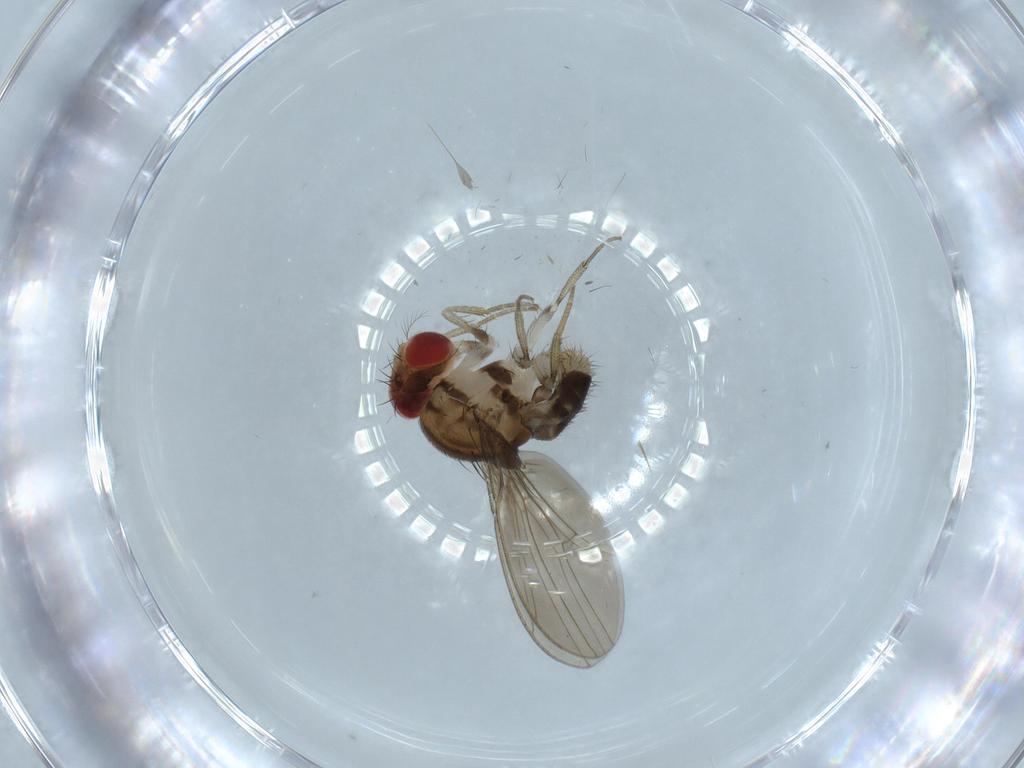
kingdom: Animalia
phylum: Arthropoda
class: Insecta
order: Diptera
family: Drosophilidae
